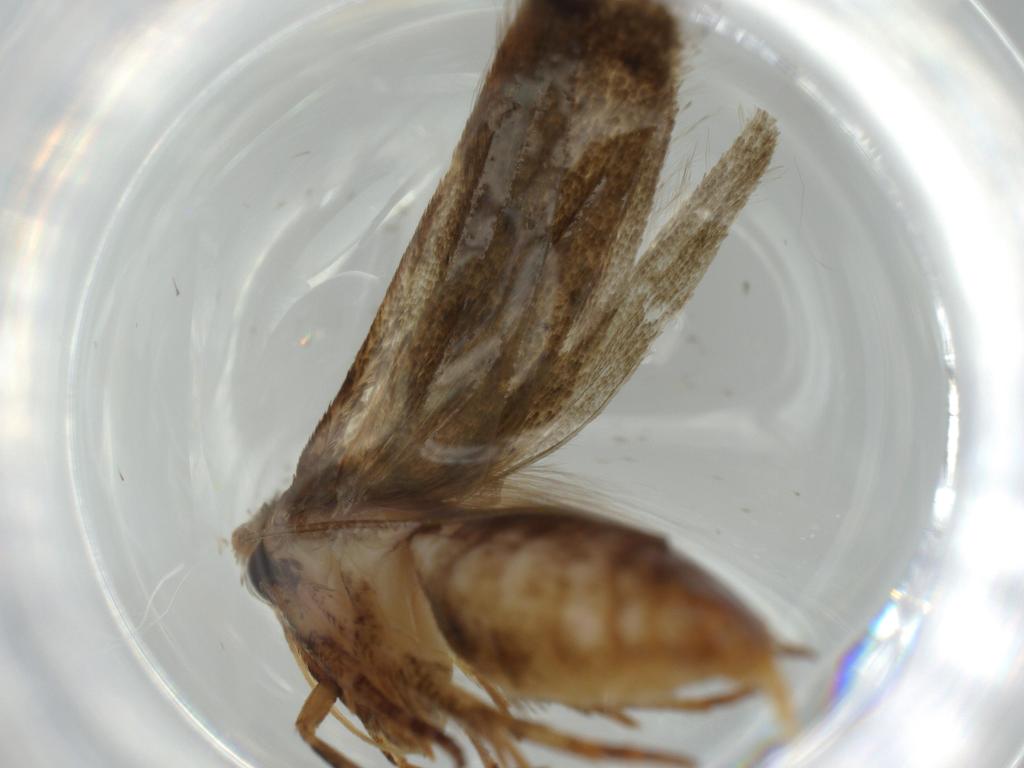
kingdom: Animalia
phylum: Arthropoda
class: Insecta
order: Lepidoptera
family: Blastobasidae
